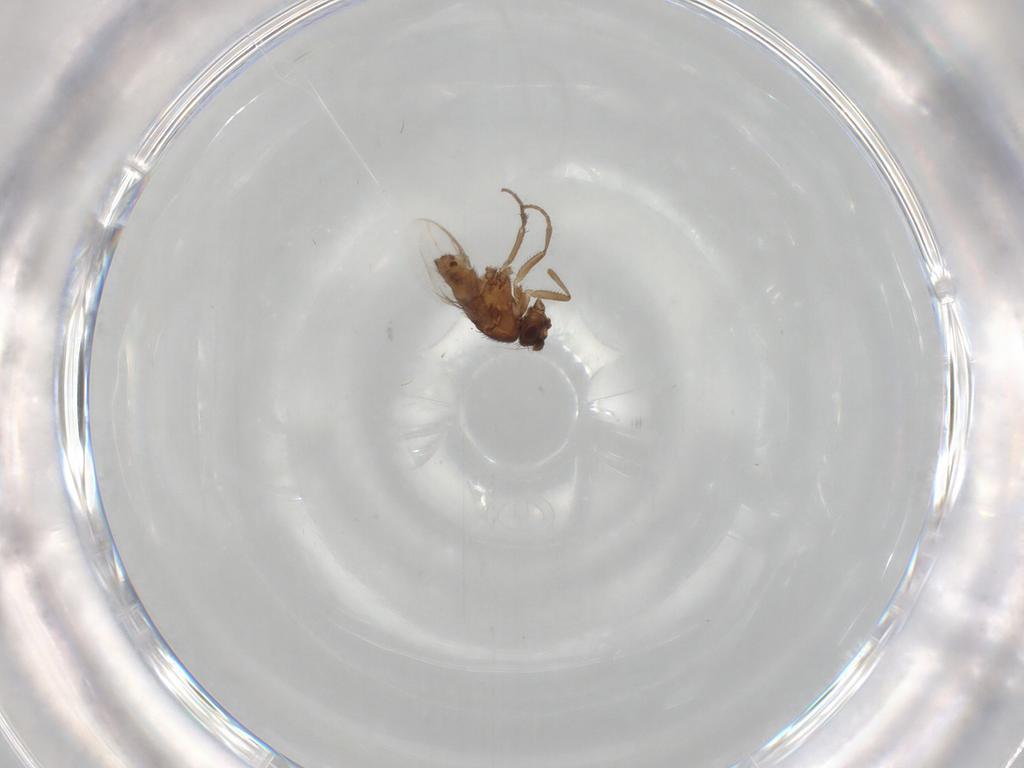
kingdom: Animalia
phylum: Arthropoda
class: Insecta
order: Diptera
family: Sphaeroceridae
